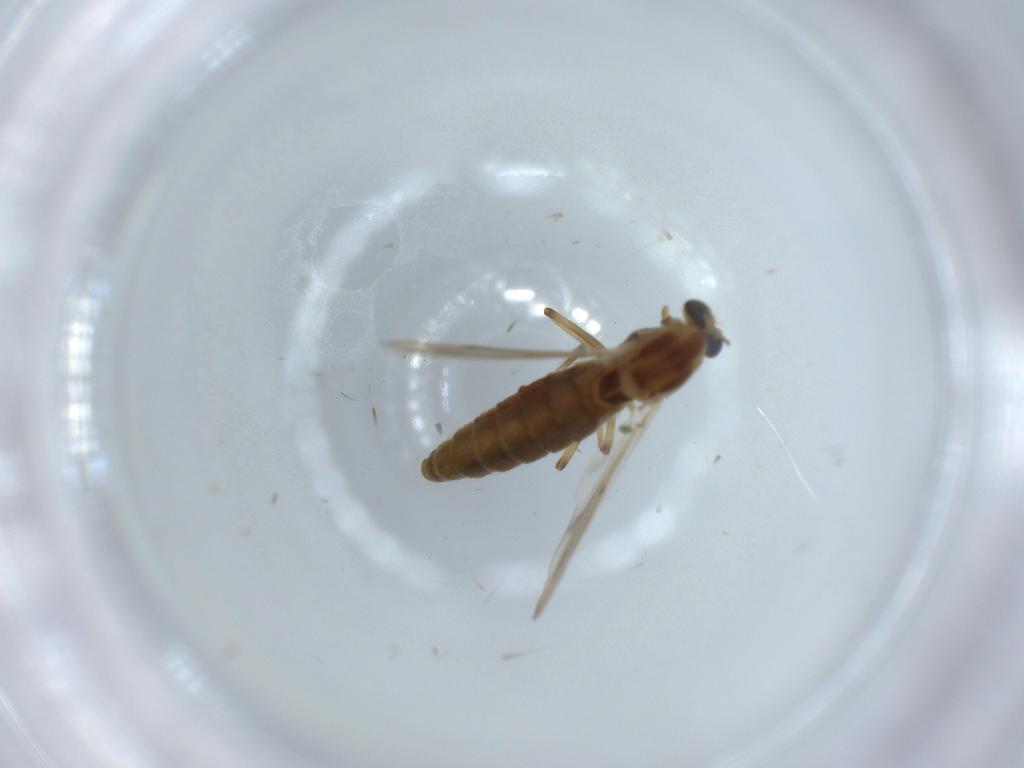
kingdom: Animalia
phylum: Arthropoda
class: Insecta
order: Diptera
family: Chironomidae
